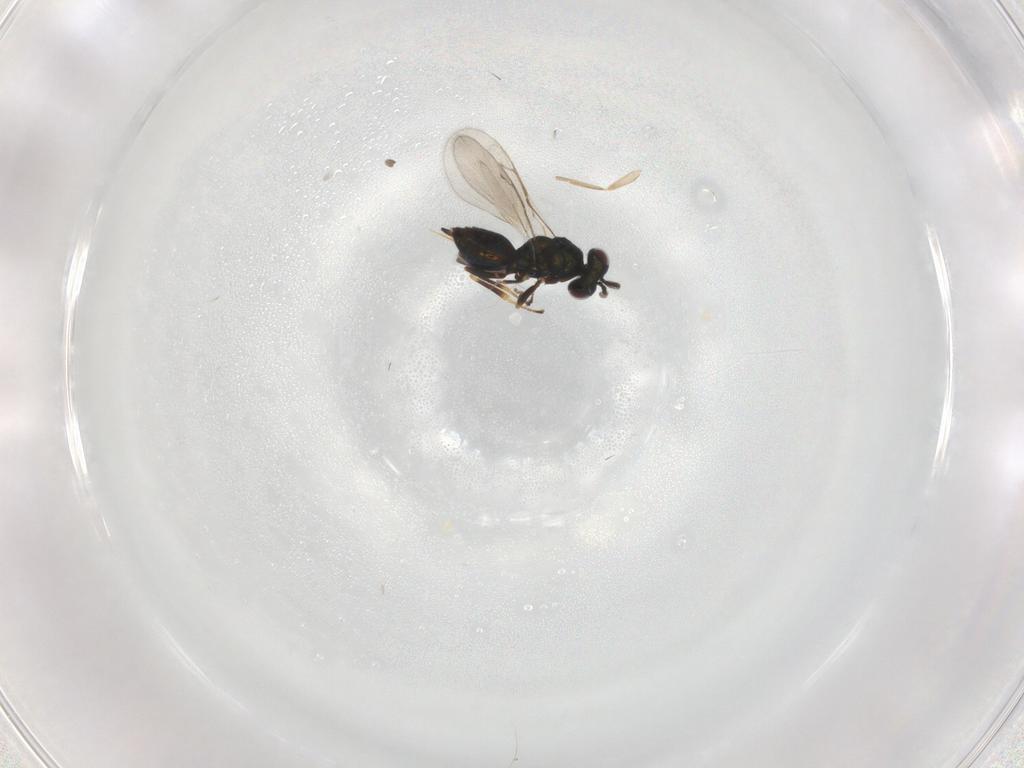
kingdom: Animalia
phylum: Arthropoda
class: Insecta
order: Hymenoptera
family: Pteromalidae
